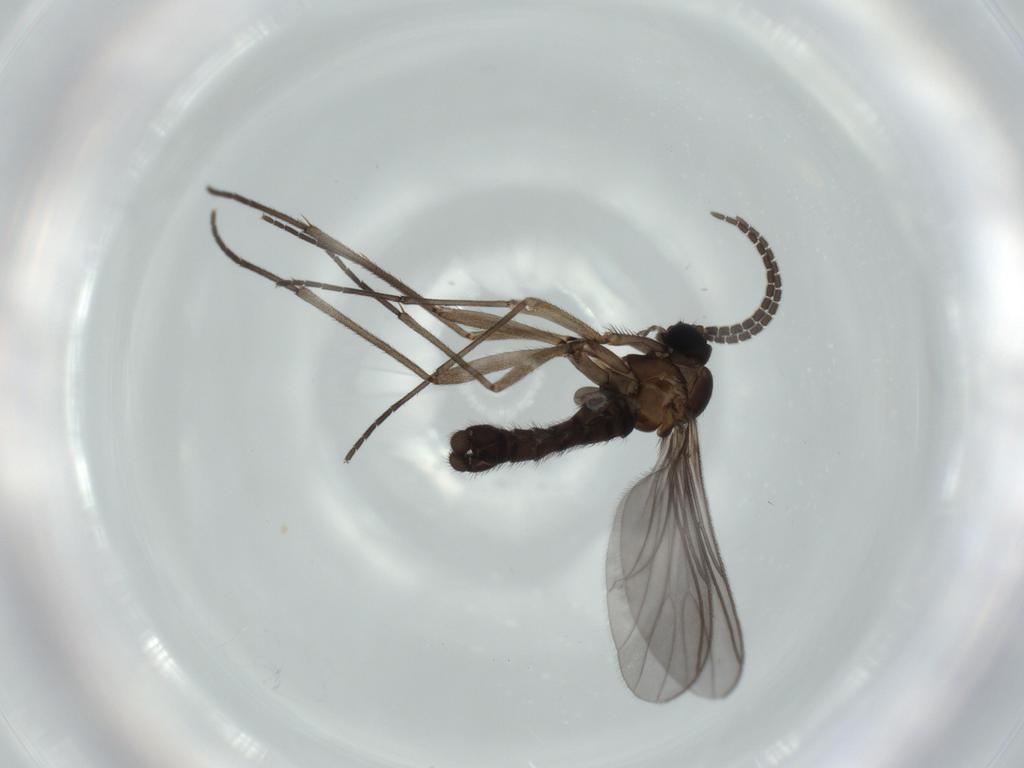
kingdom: Animalia
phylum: Arthropoda
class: Insecta
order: Diptera
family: Sciaridae
